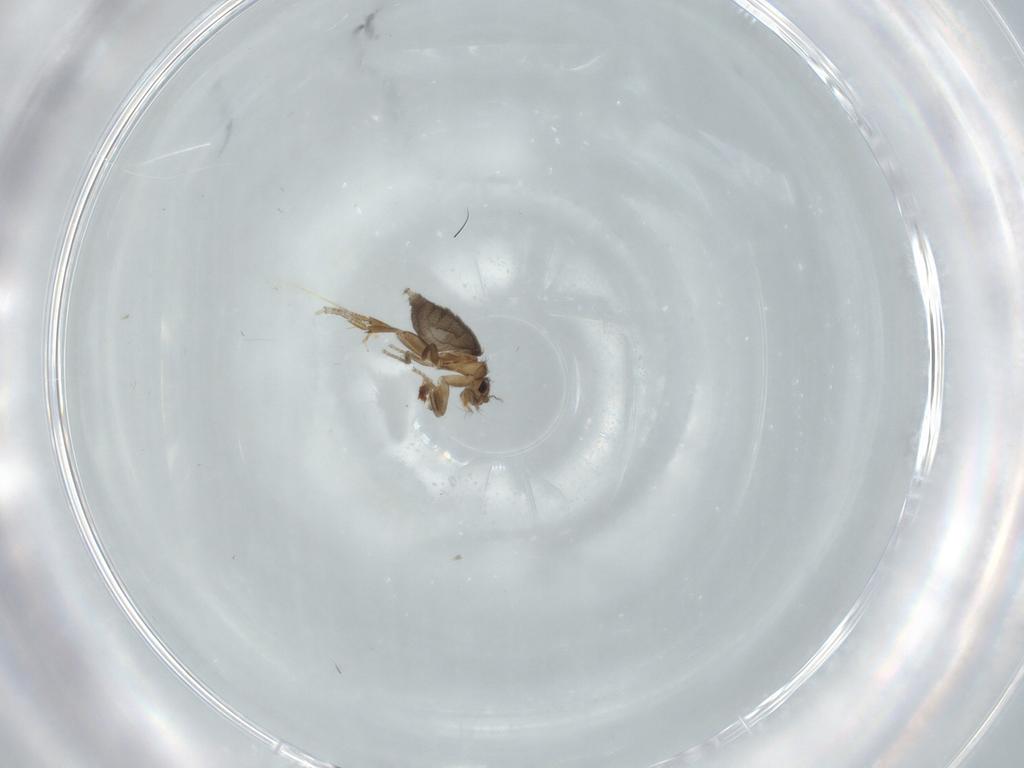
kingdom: Animalia
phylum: Arthropoda
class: Insecta
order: Diptera
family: Phoridae
